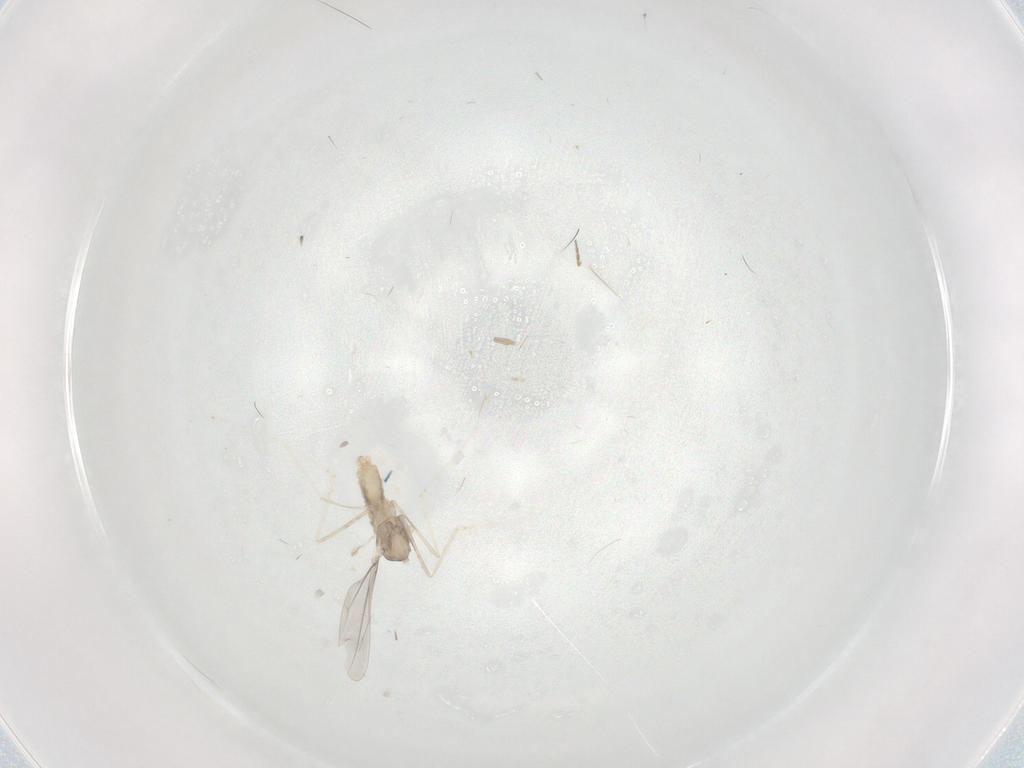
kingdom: Animalia
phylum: Arthropoda
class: Insecta
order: Diptera
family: Cecidomyiidae
